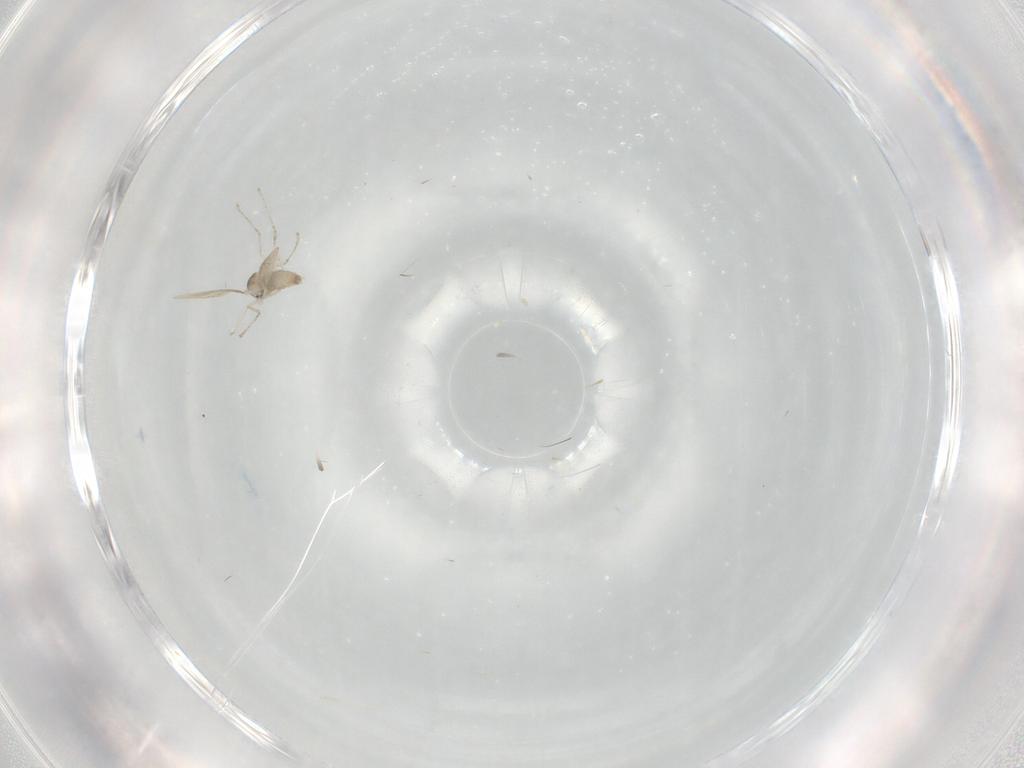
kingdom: Animalia
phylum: Arthropoda
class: Insecta
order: Diptera
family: Cecidomyiidae
